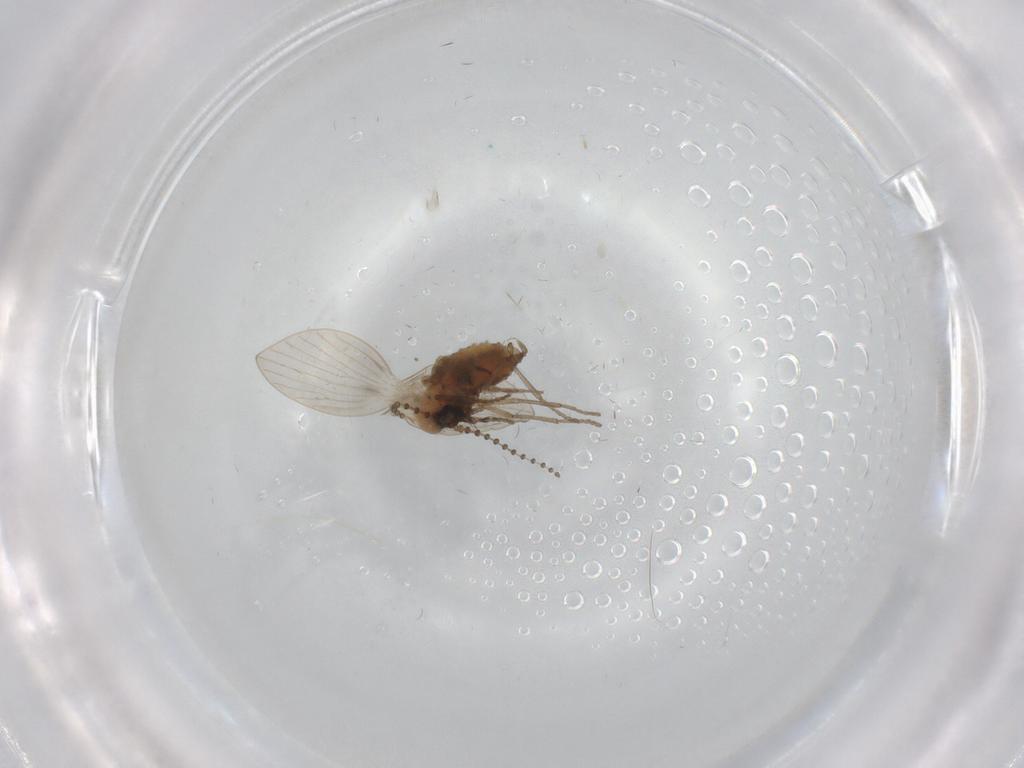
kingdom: Animalia
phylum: Arthropoda
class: Insecta
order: Diptera
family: Psychodidae
